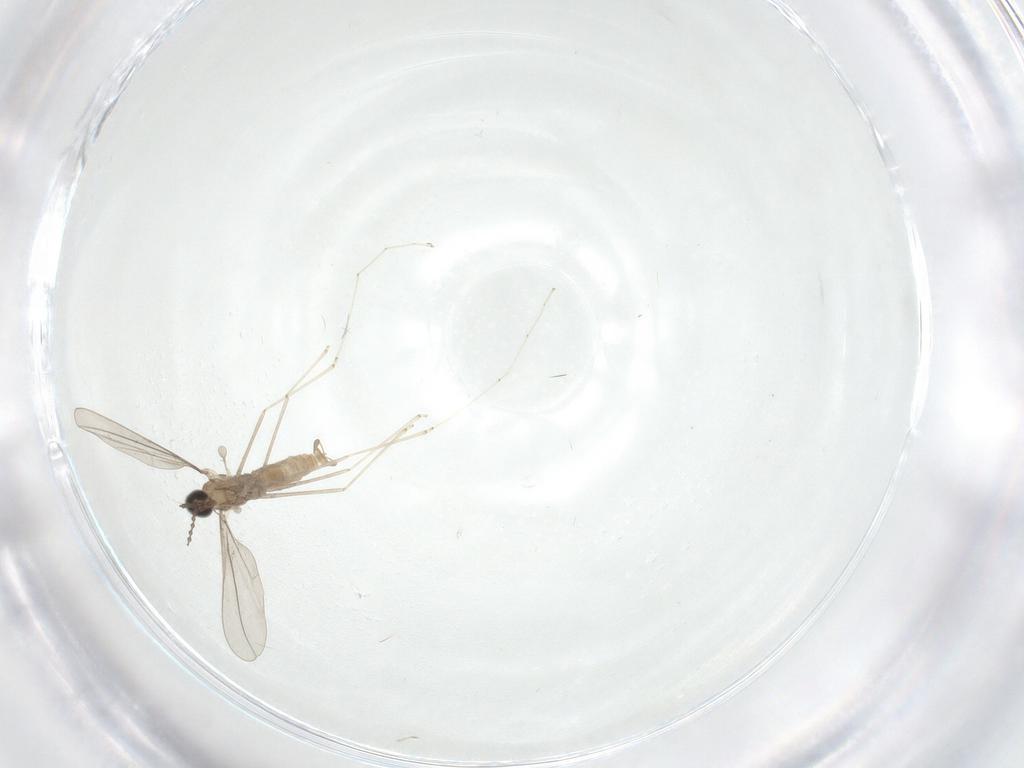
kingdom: Animalia
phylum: Arthropoda
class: Insecta
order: Diptera
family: Cecidomyiidae
